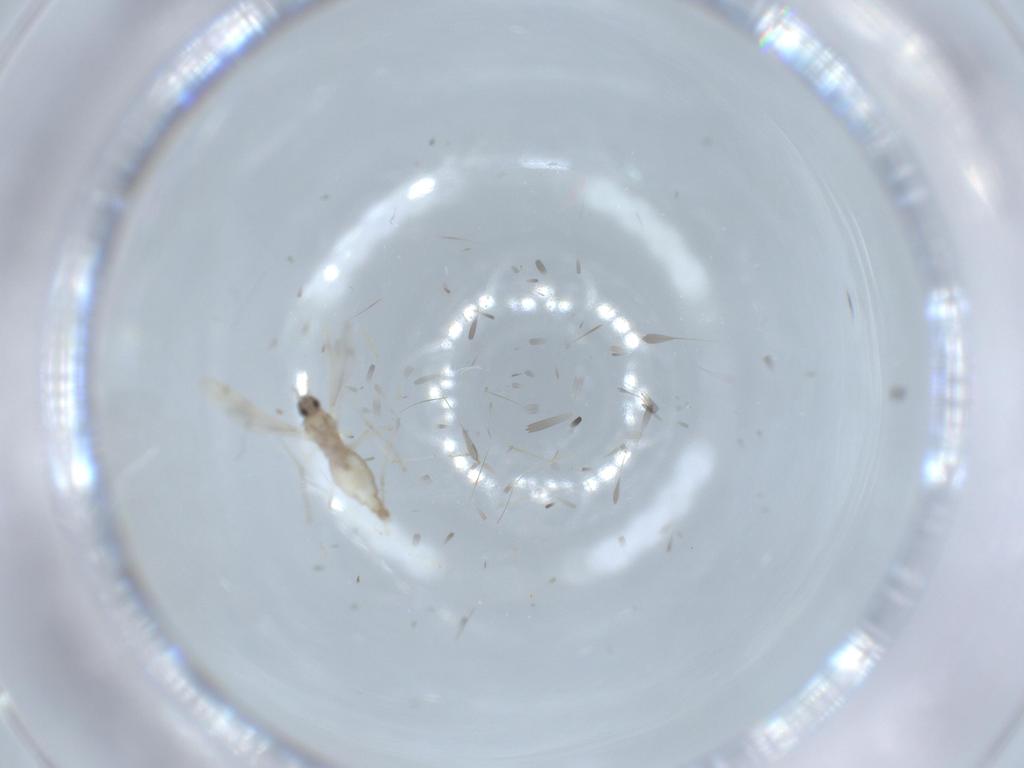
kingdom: Animalia
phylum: Arthropoda
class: Insecta
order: Diptera
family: Cecidomyiidae
